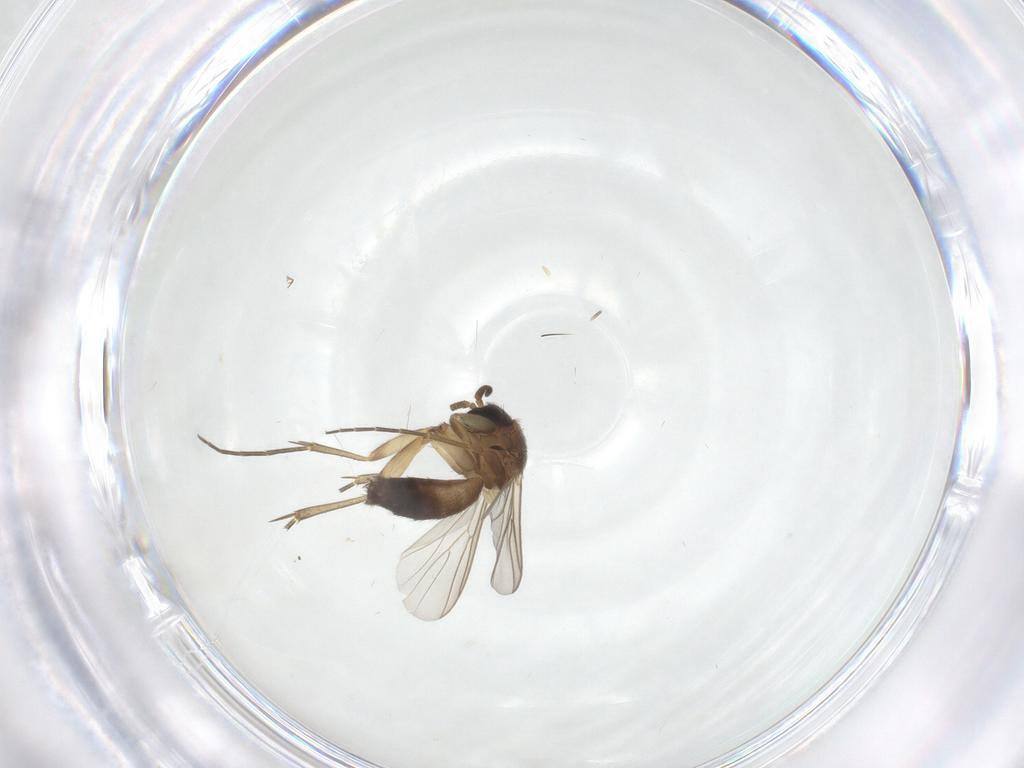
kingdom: Animalia
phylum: Arthropoda
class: Insecta
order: Diptera
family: Mycetophilidae
